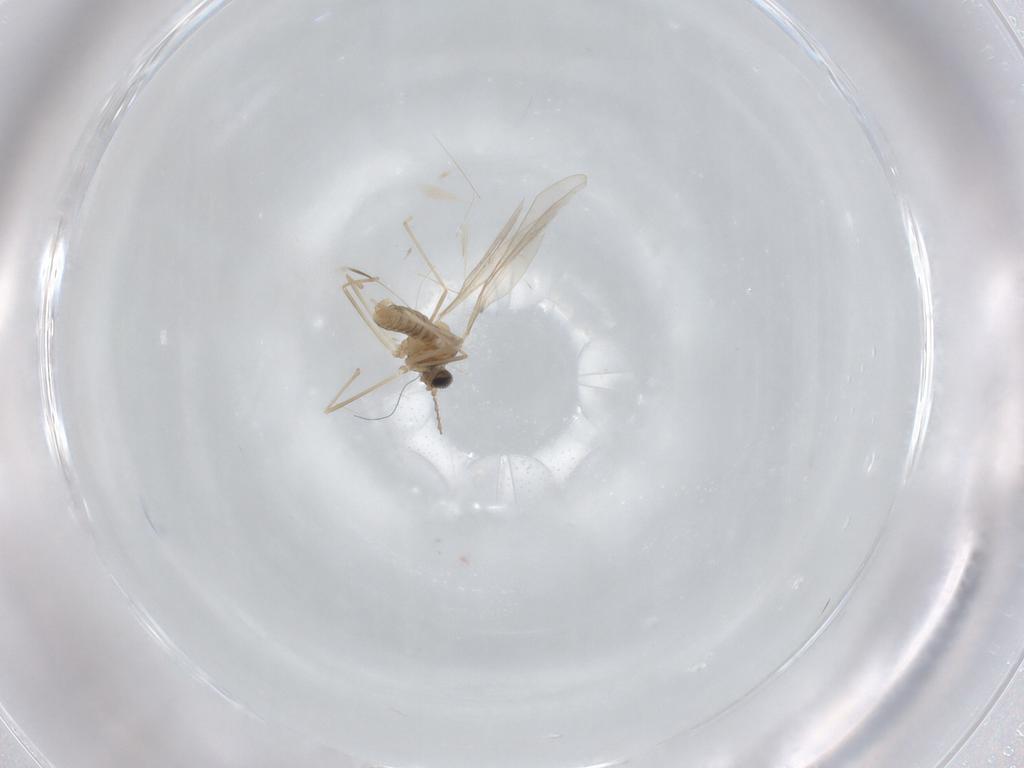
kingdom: Animalia
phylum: Arthropoda
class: Insecta
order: Diptera
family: Cecidomyiidae
